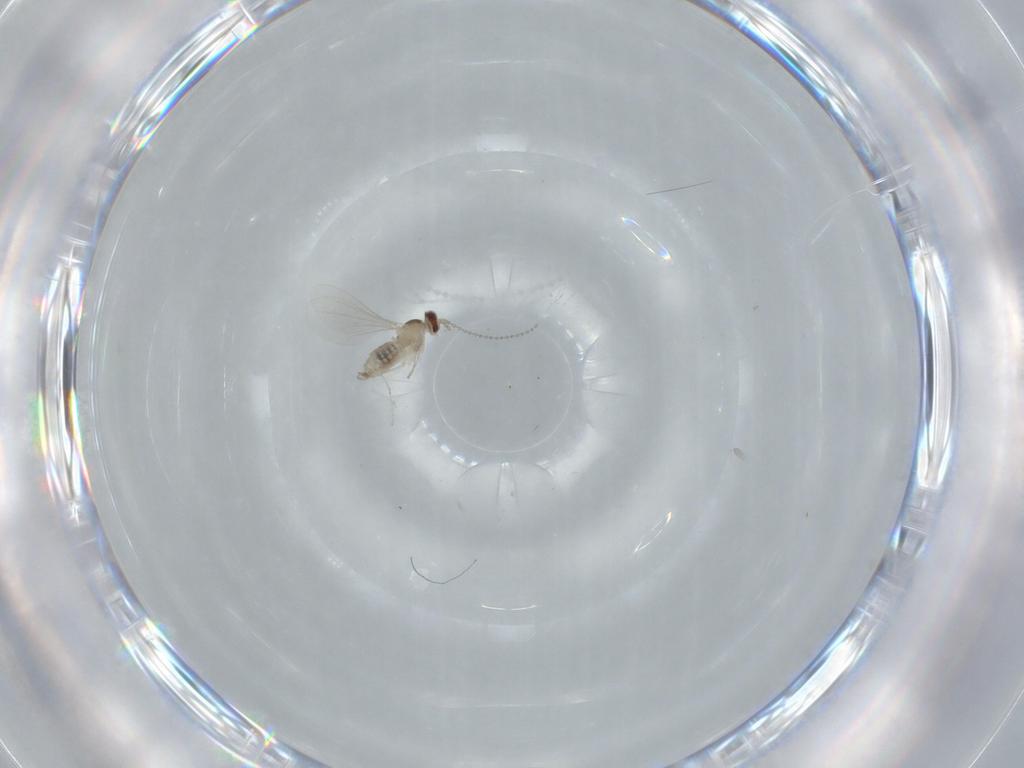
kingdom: Animalia
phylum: Arthropoda
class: Insecta
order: Diptera
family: Cecidomyiidae
